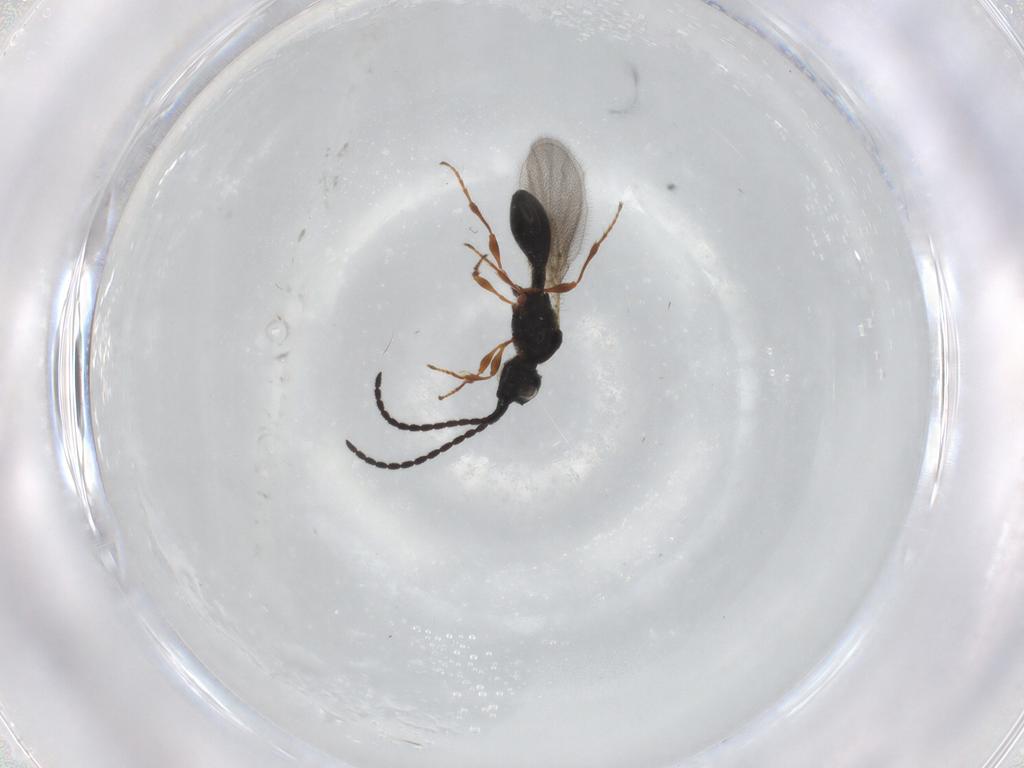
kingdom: Animalia
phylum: Arthropoda
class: Insecta
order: Hymenoptera
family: Diapriidae
